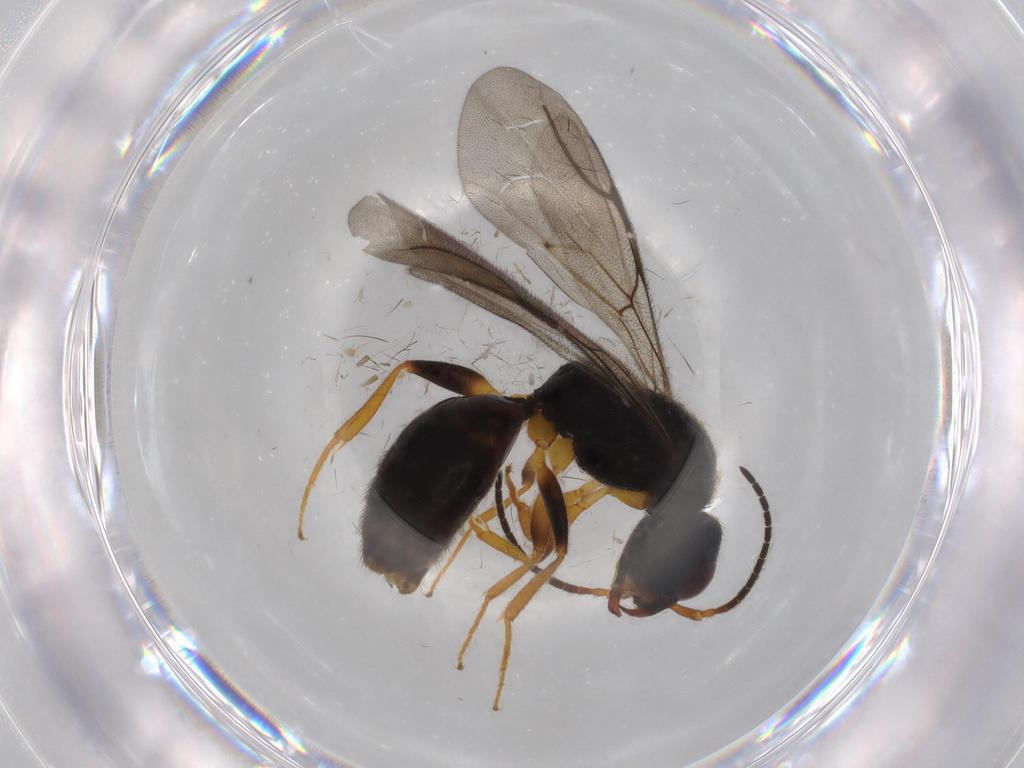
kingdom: Animalia
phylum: Arthropoda
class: Insecta
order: Hymenoptera
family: Bethylidae
